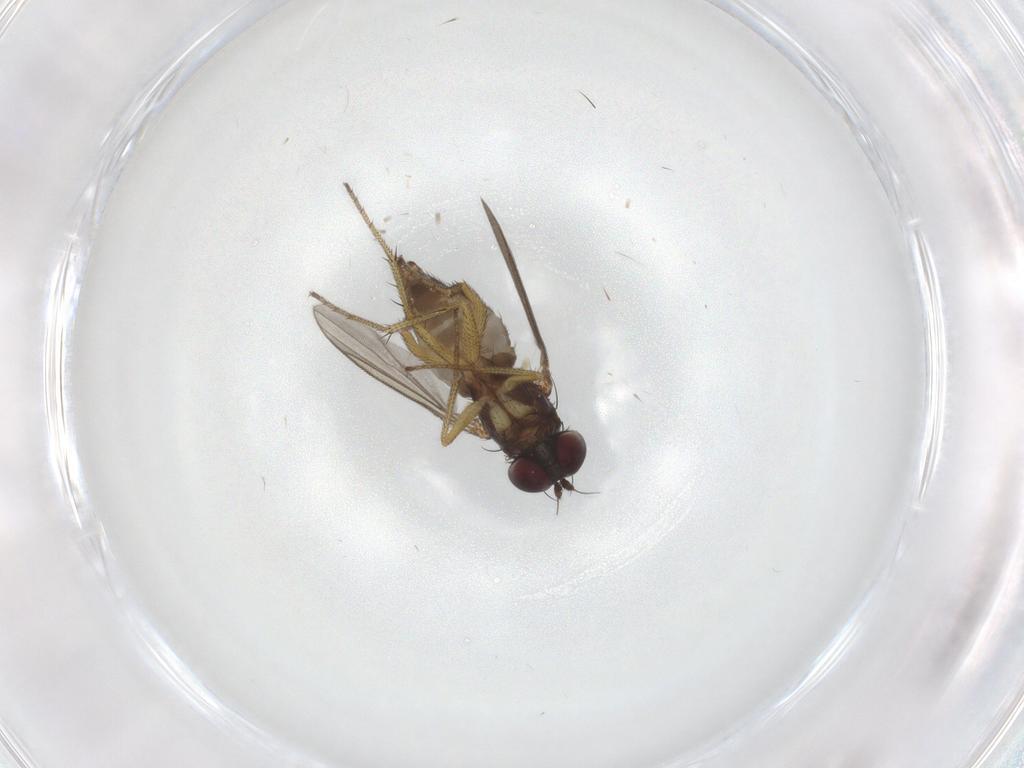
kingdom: Animalia
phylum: Arthropoda
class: Insecta
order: Diptera
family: Dolichopodidae
